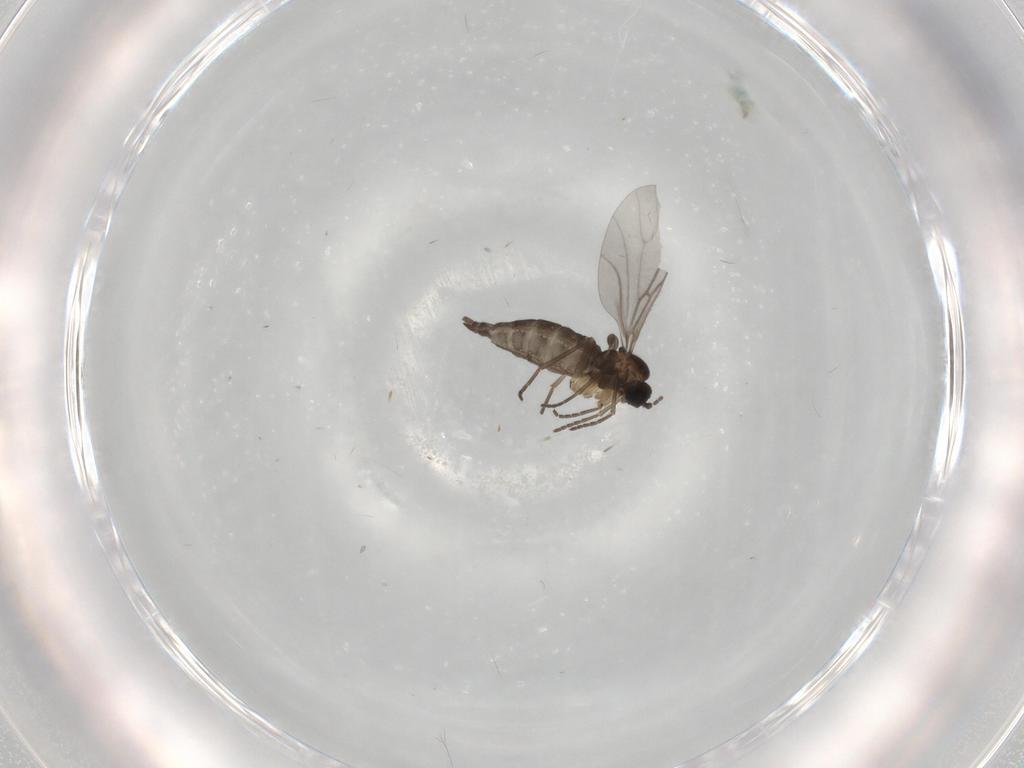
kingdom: Animalia
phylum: Arthropoda
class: Insecta
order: Diptera
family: Sciaridae
